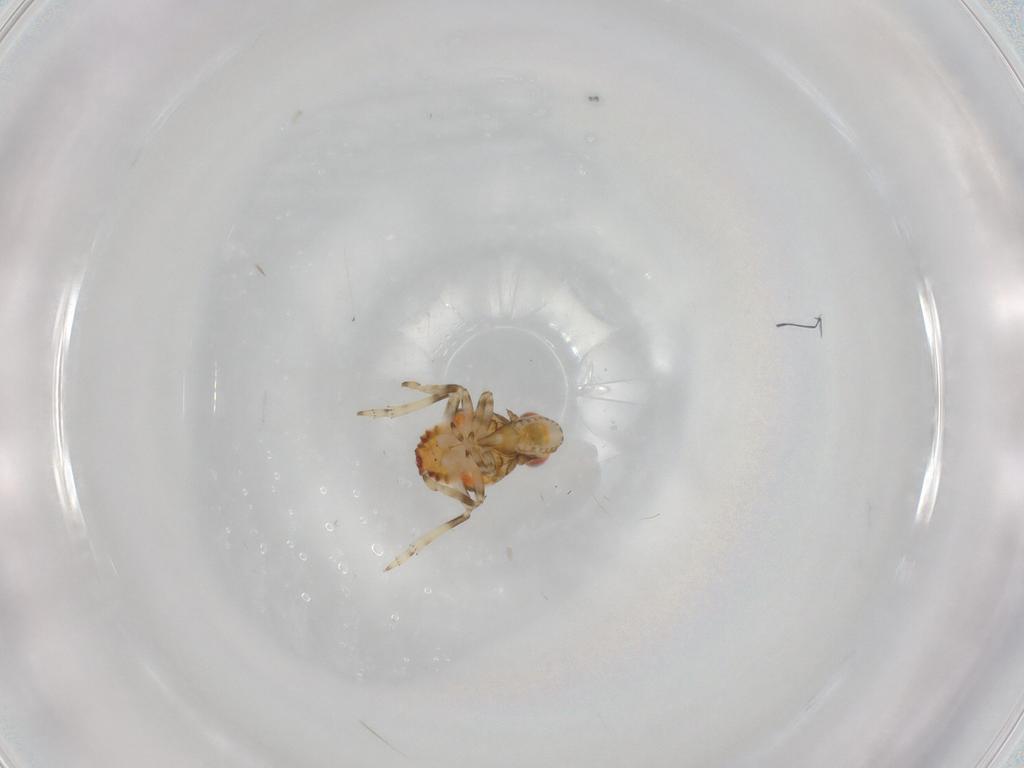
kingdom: Animalia
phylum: Arthropoda
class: Insecta
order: Hemiptera
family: Tropiduchidae
